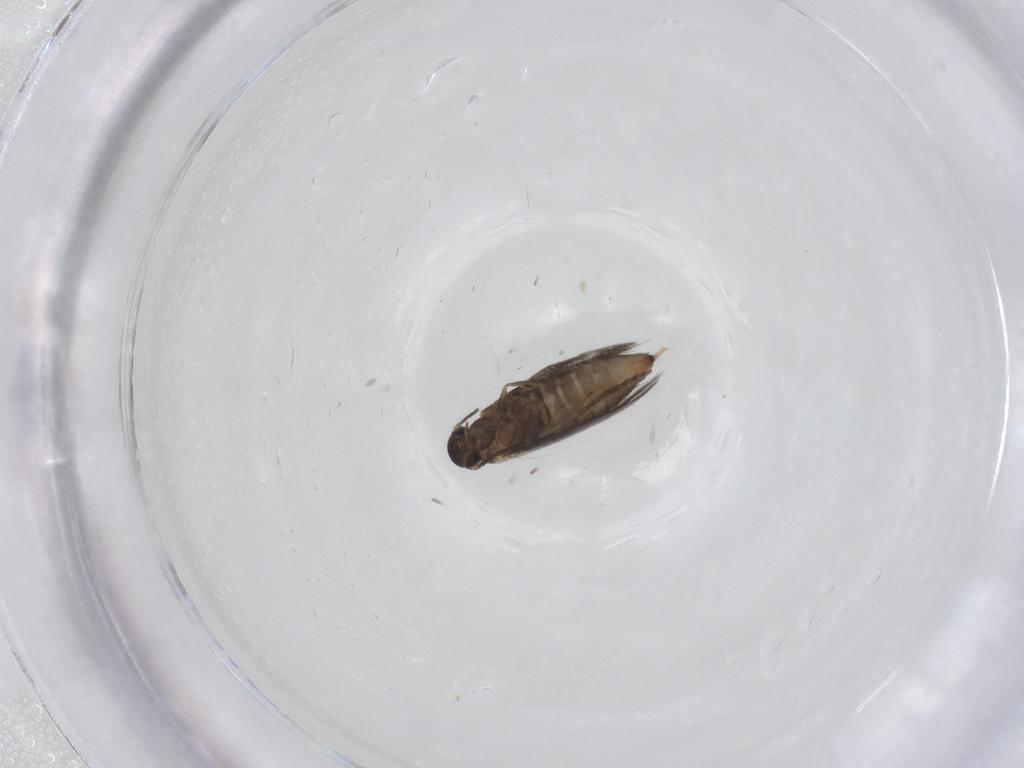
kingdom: Animalia
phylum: Arthropoda
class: Insecta
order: Lepidoptera
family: Heliozelidae
